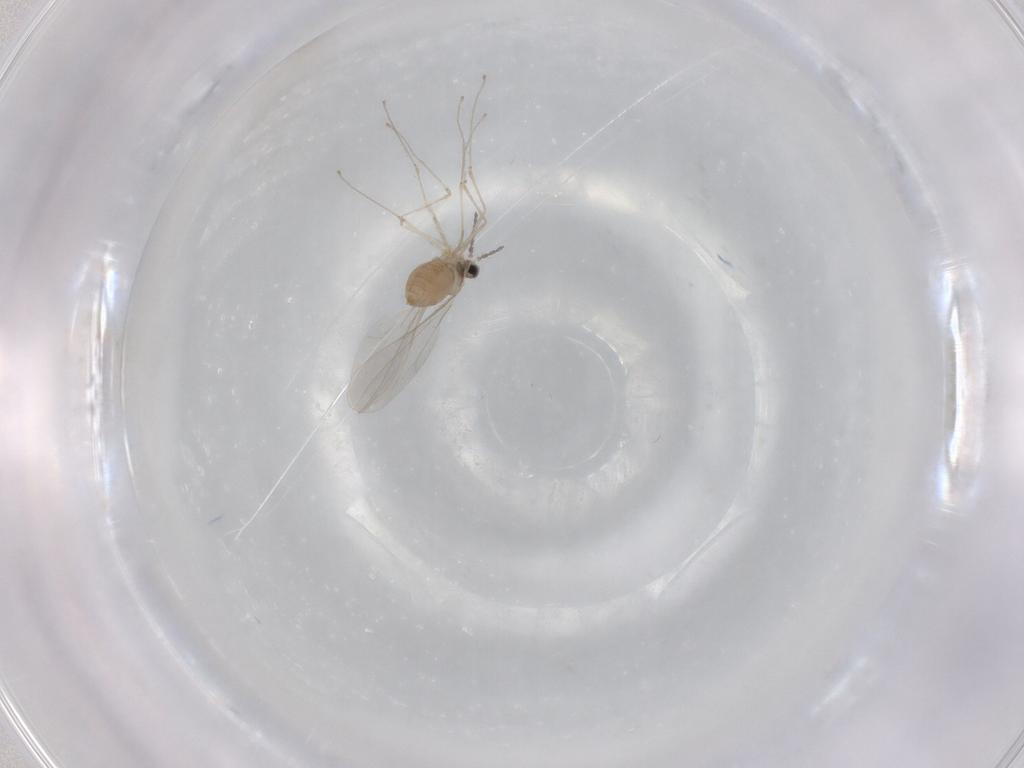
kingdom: Animalia
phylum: Arthropoda
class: Insecta
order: Diptera
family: Cecidomyiidae
